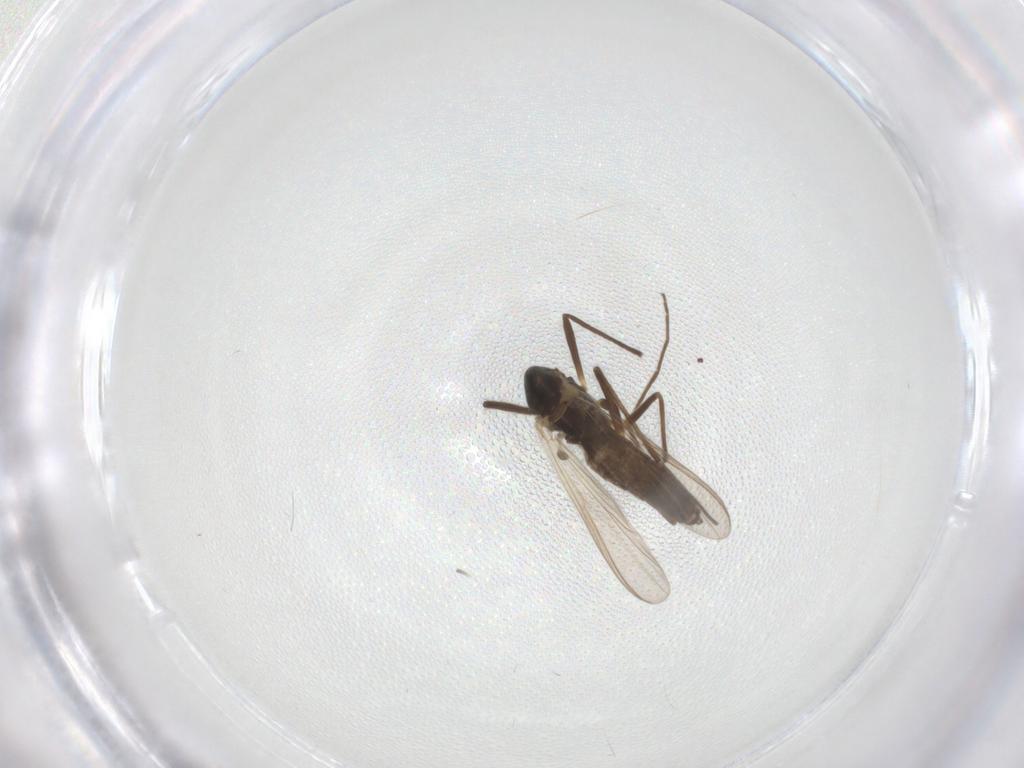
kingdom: Animalia
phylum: Arthropoda
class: Insecta
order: Diptera
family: Chironomidae
